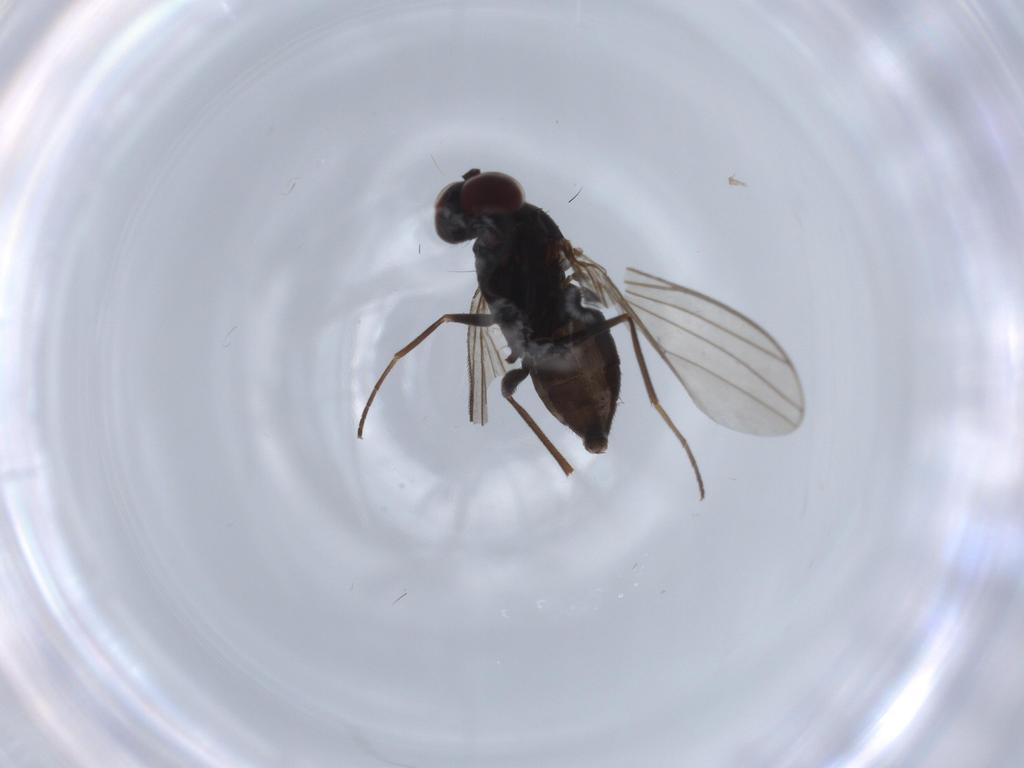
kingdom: Animalia
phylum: Arthropoda
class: Insecta
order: Diptera
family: Dolichopodidae
